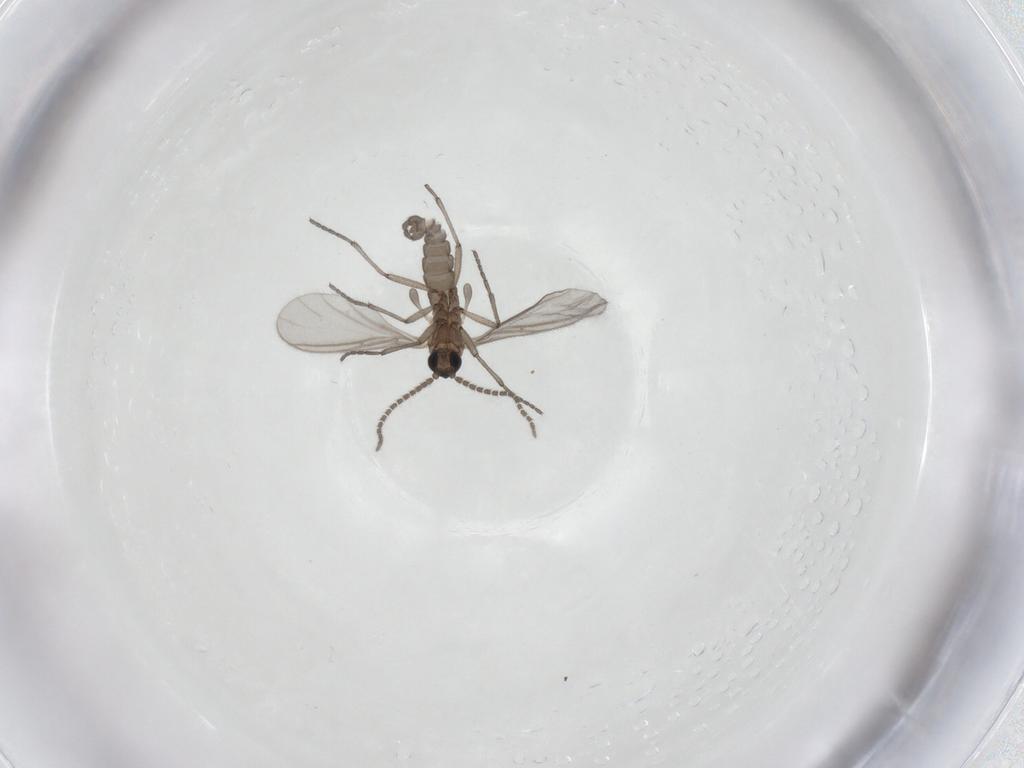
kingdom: Animalia
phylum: Arthropoda
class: Insecta
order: Diptera
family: Sciaridae
